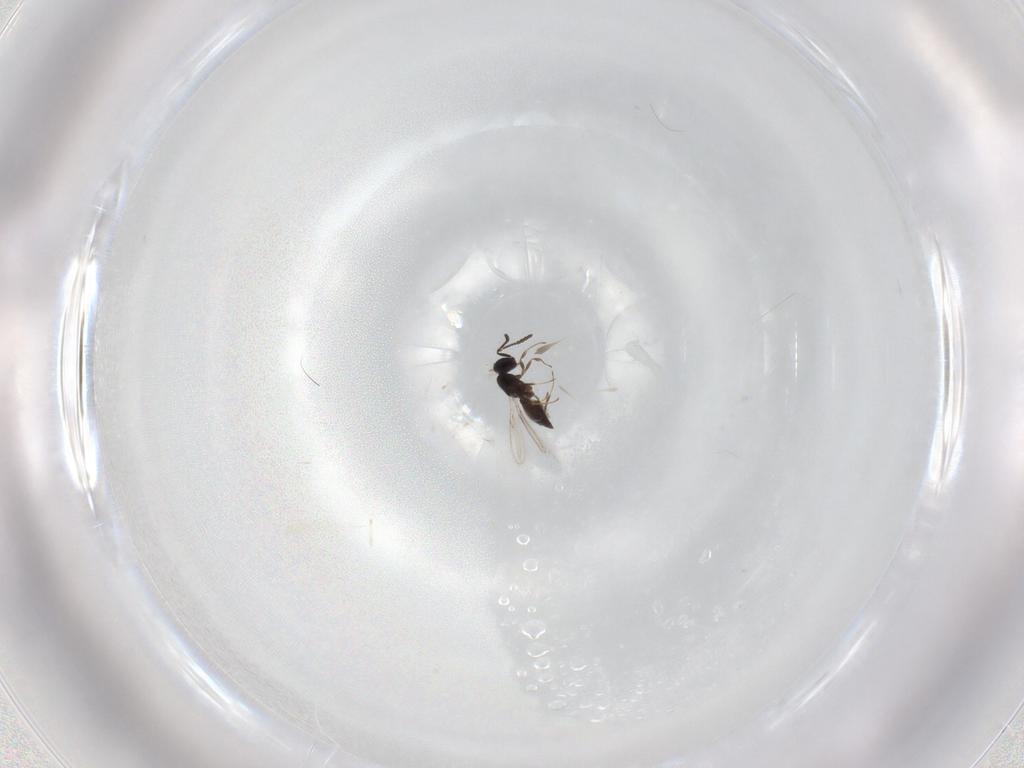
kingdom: Animalia
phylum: Arthropoda
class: Insecta
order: Hymenoptera
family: Scelionidae
